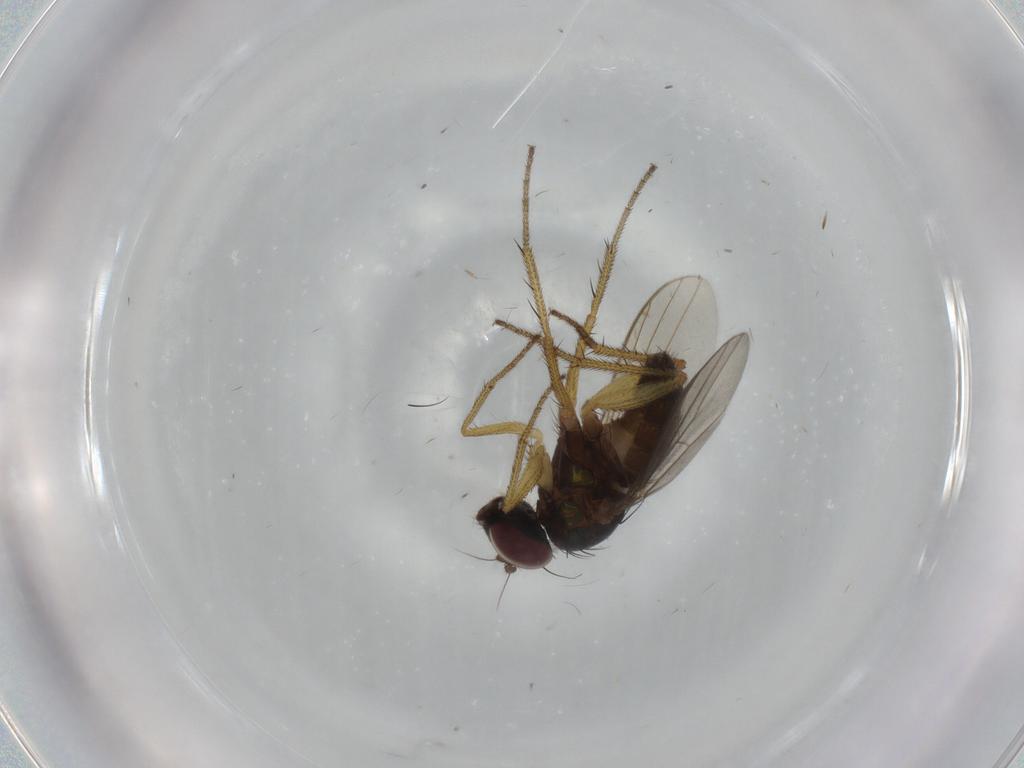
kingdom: Animalia
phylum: Arthropoda
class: Insecta
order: Diptera
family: Dolichopodidae
